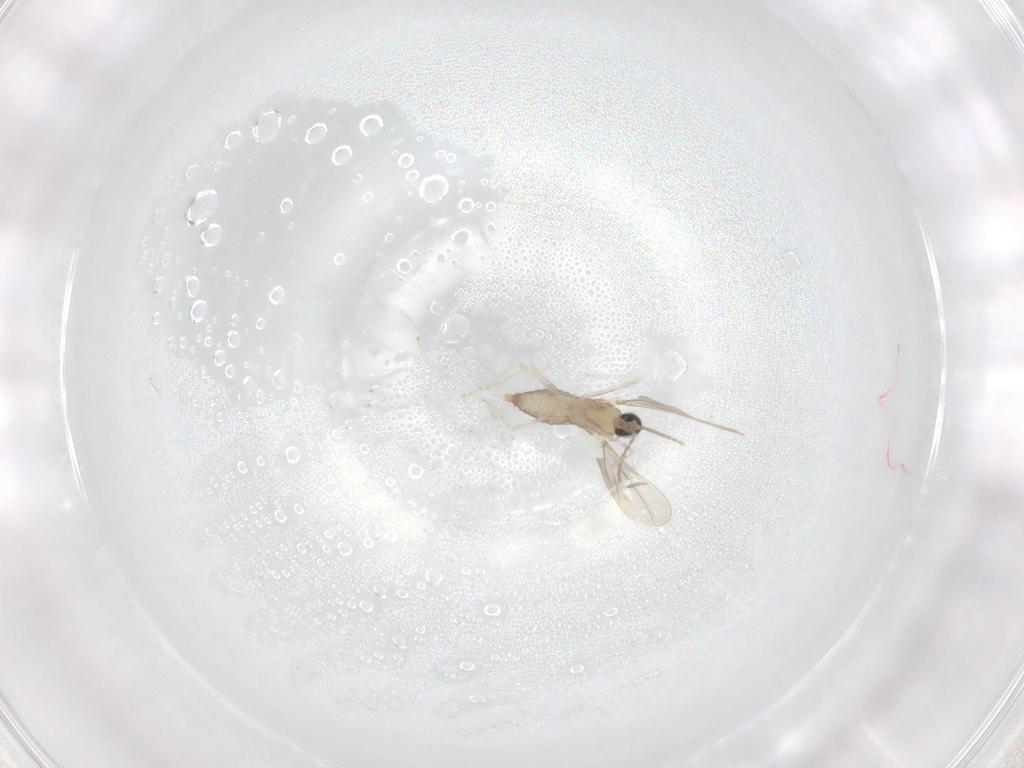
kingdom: Animalia
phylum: Arthropoda
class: Insecta
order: Diptera
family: Cecidomyiidae
